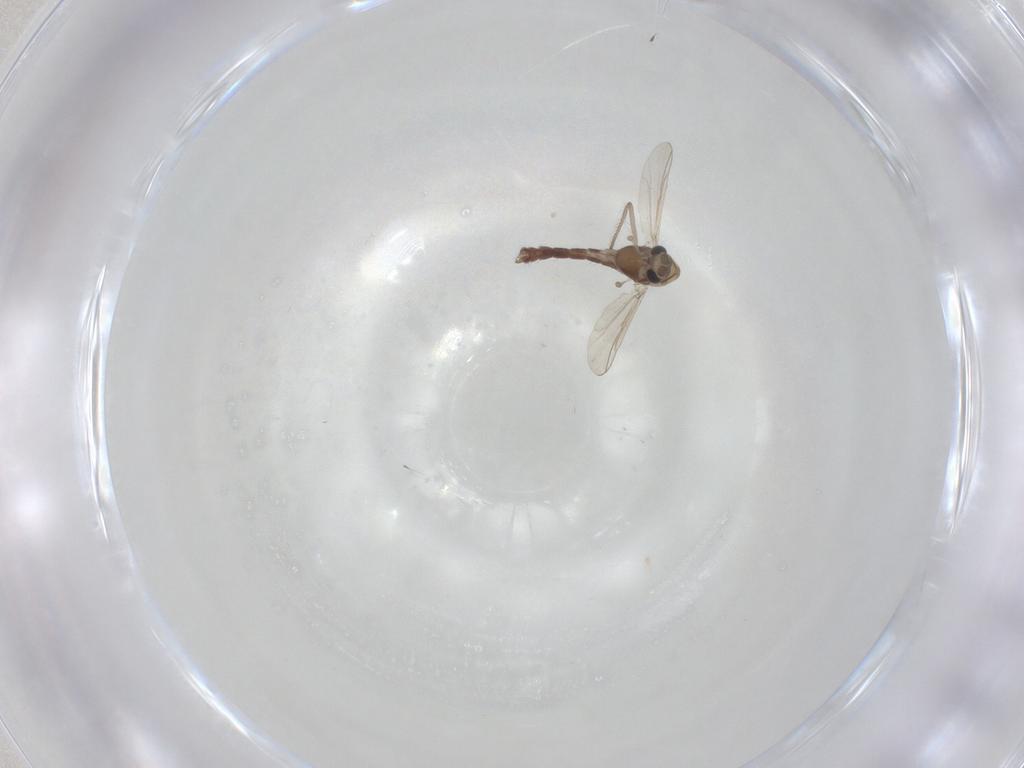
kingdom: Animalia
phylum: Arthropoda
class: Insecta
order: Diptera
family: Chironomidae
